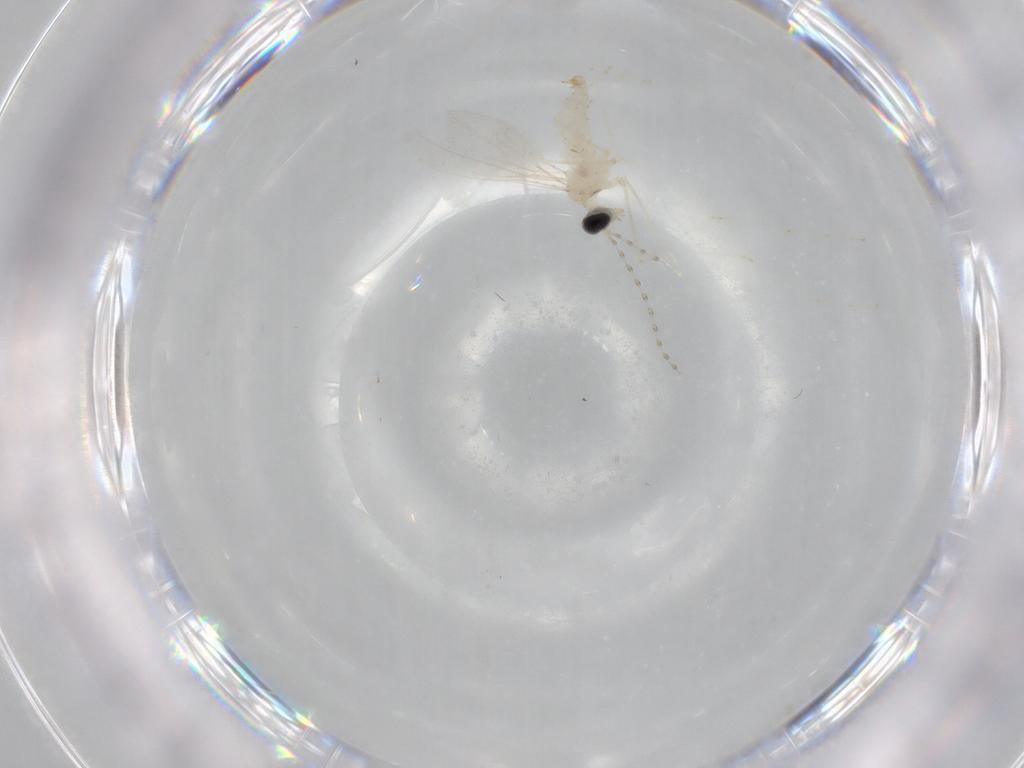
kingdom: Animalia
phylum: Arthropoda
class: Insecta
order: Diptera
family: Cecidomyiidae
